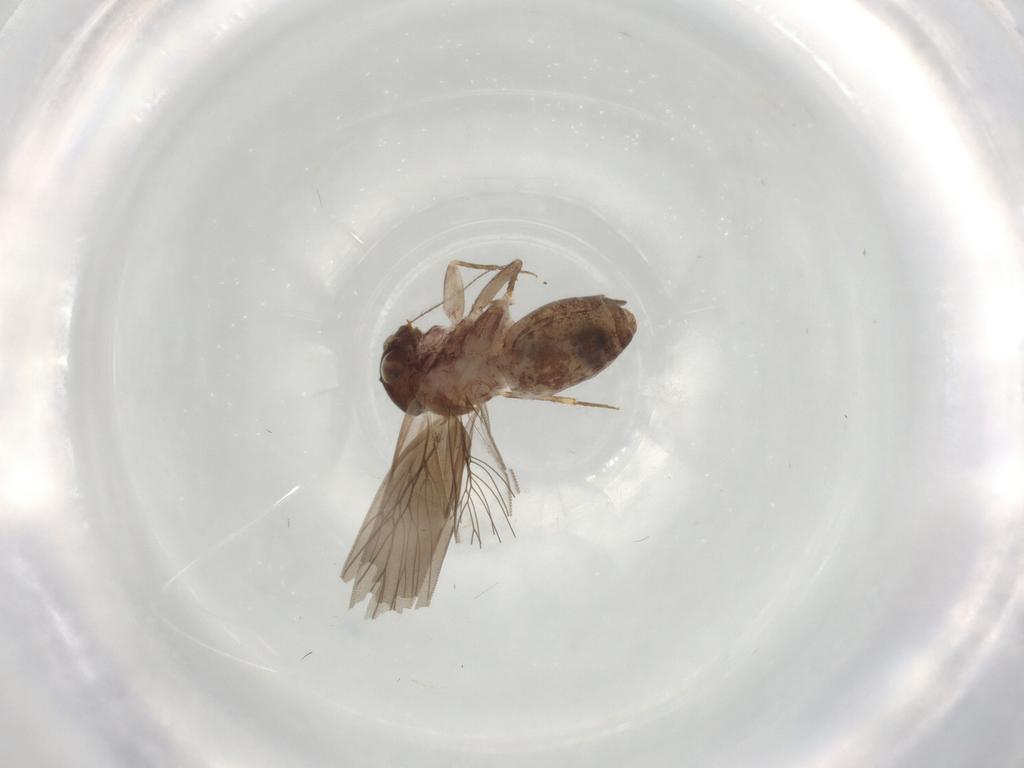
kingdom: Animalia
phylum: Arthropoda
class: Insecta
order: Psocodea
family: Lepidopsocidae
